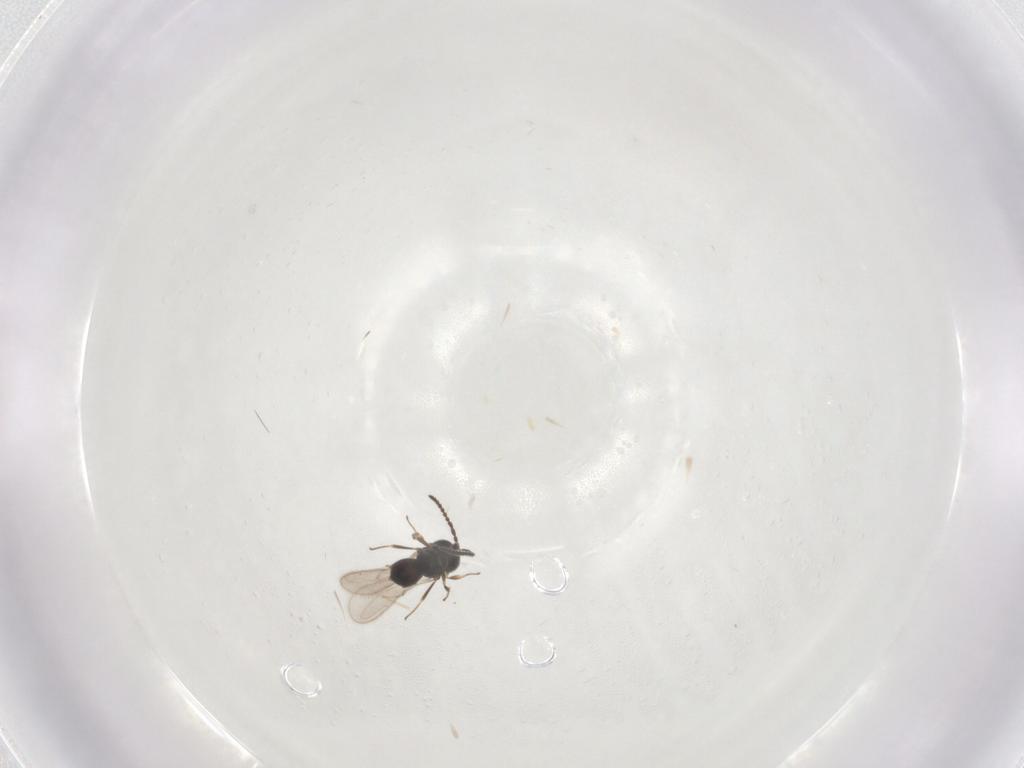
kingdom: Animalia
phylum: Arthropoda
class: Insecta
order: Hymenoptera
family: Scelionidae
